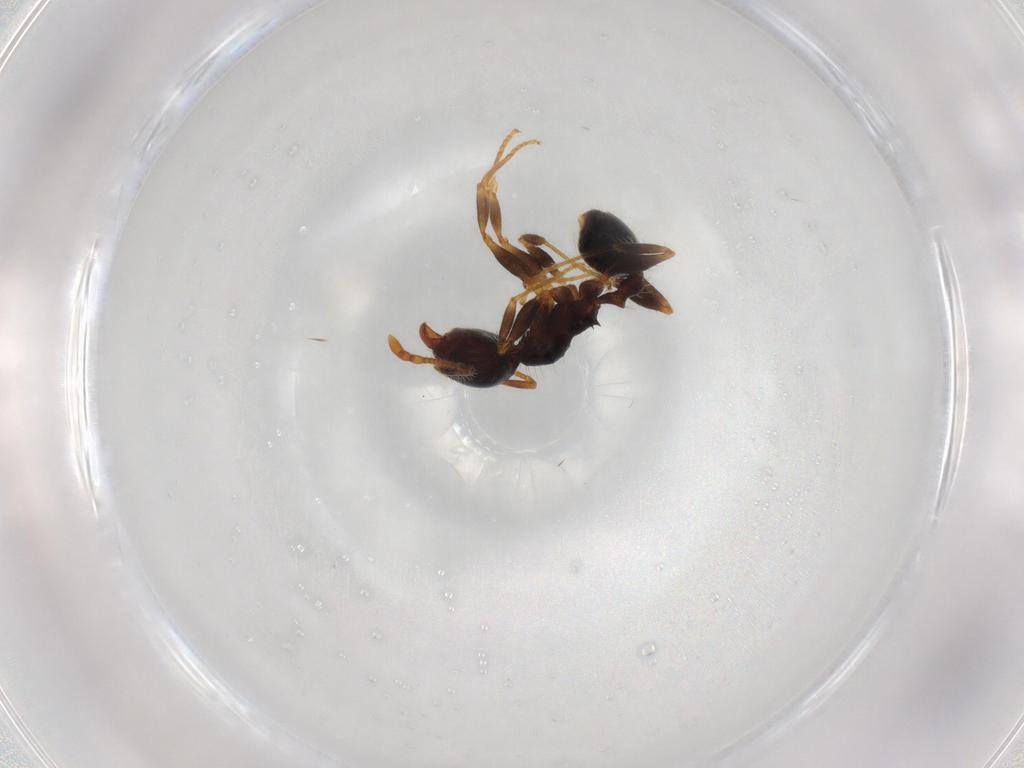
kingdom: Animalia
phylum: Arthropoda
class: Insecta
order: Hymenoptera
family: Formicidae
